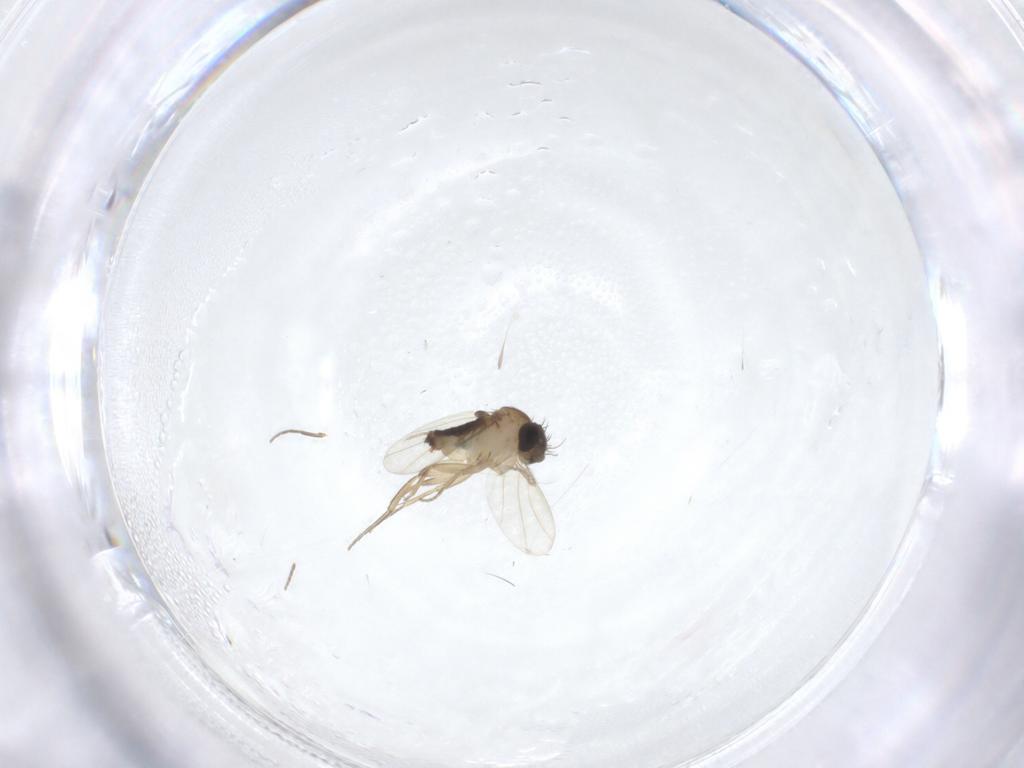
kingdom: Animalia
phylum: Arthropoda
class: Insecta
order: Diptera
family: Phoridae
